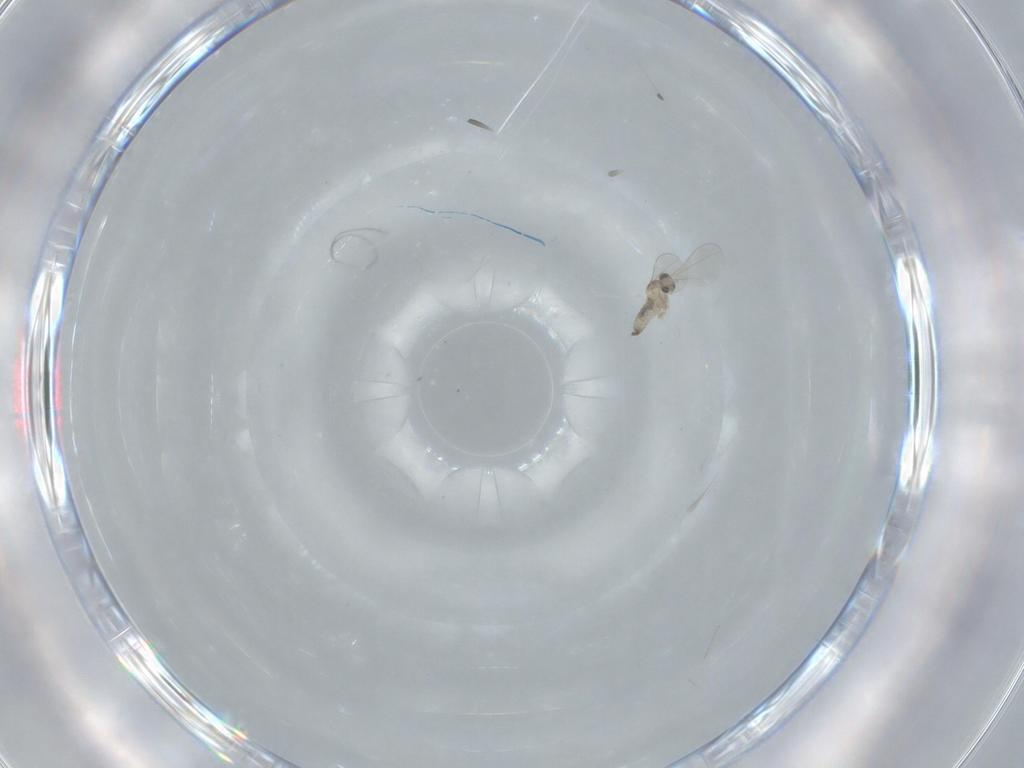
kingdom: Animalia
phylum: Arthropoda
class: Insecta
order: Diptera
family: Cecidomyiidae
